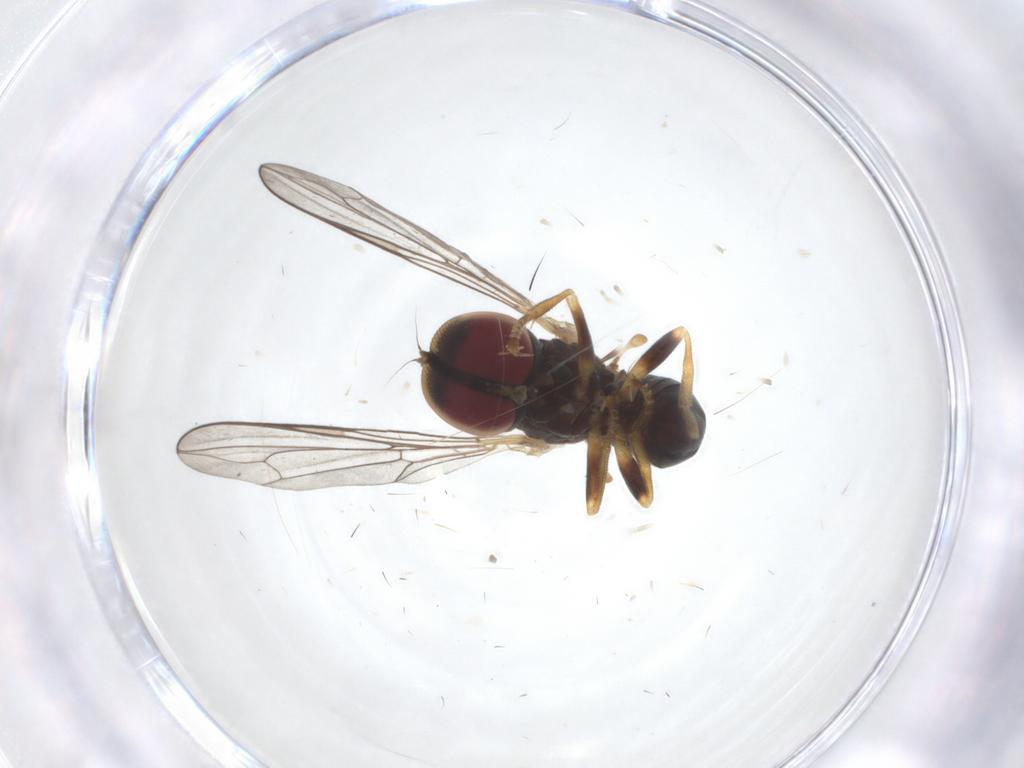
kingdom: Animalia
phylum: Arthropoda
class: Insecta
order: Diptera
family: Pipunculidae
